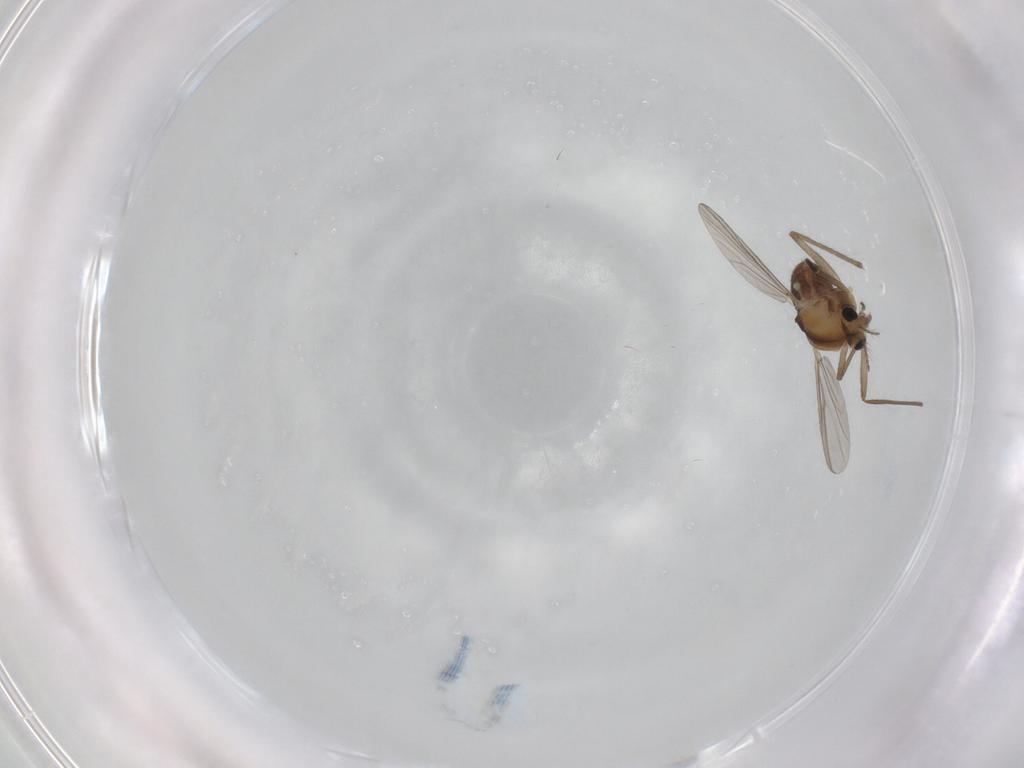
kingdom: Animalia
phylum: Arthropoda
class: Insecta
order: Diptera
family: Chironomidae
